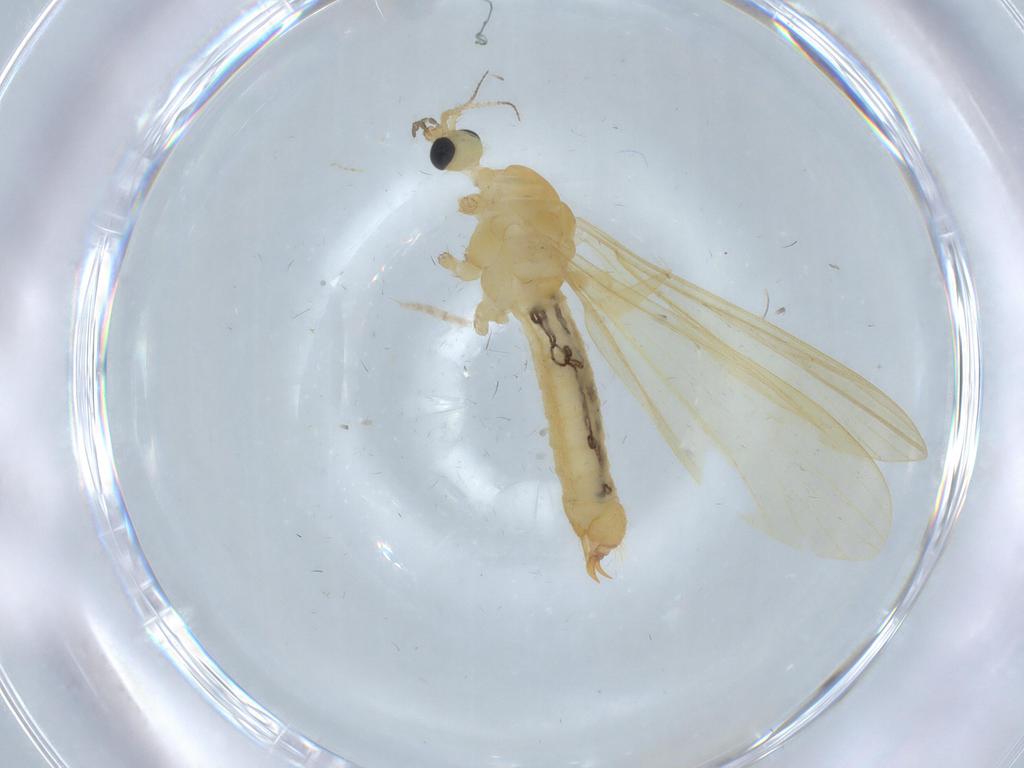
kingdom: Animalia
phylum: Arthropoda
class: Insecta
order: Diptera
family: Limoniidae
